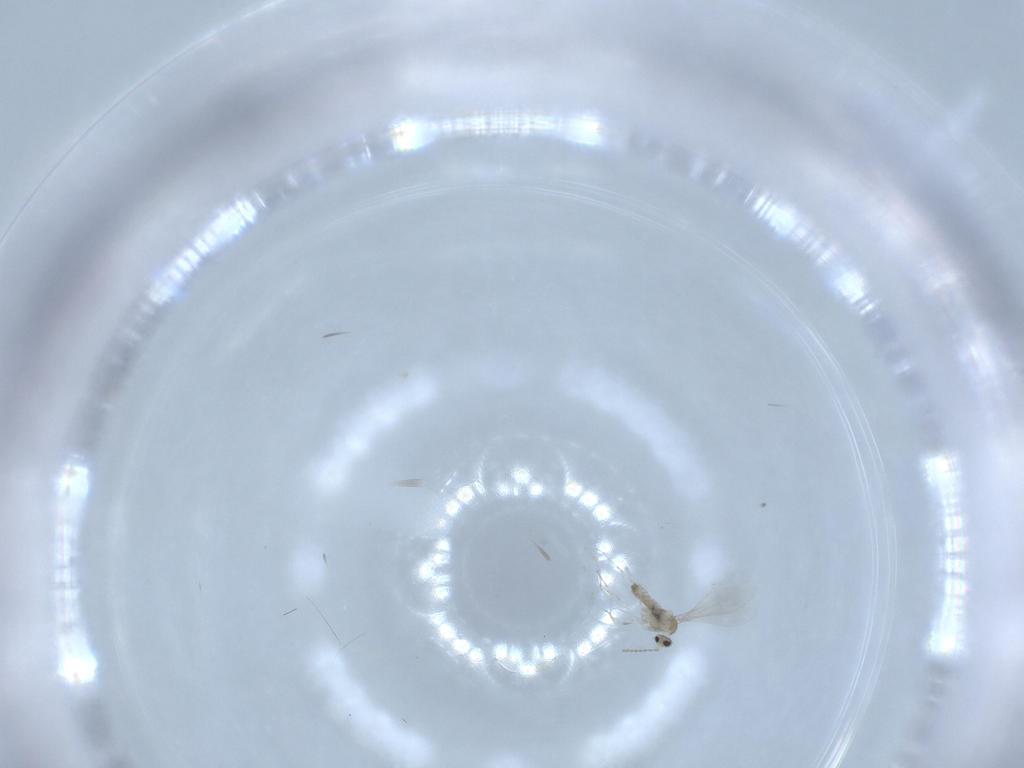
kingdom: Animalia
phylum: Arthropoda
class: Insecta
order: Diptera
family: Cecidomyiidae
